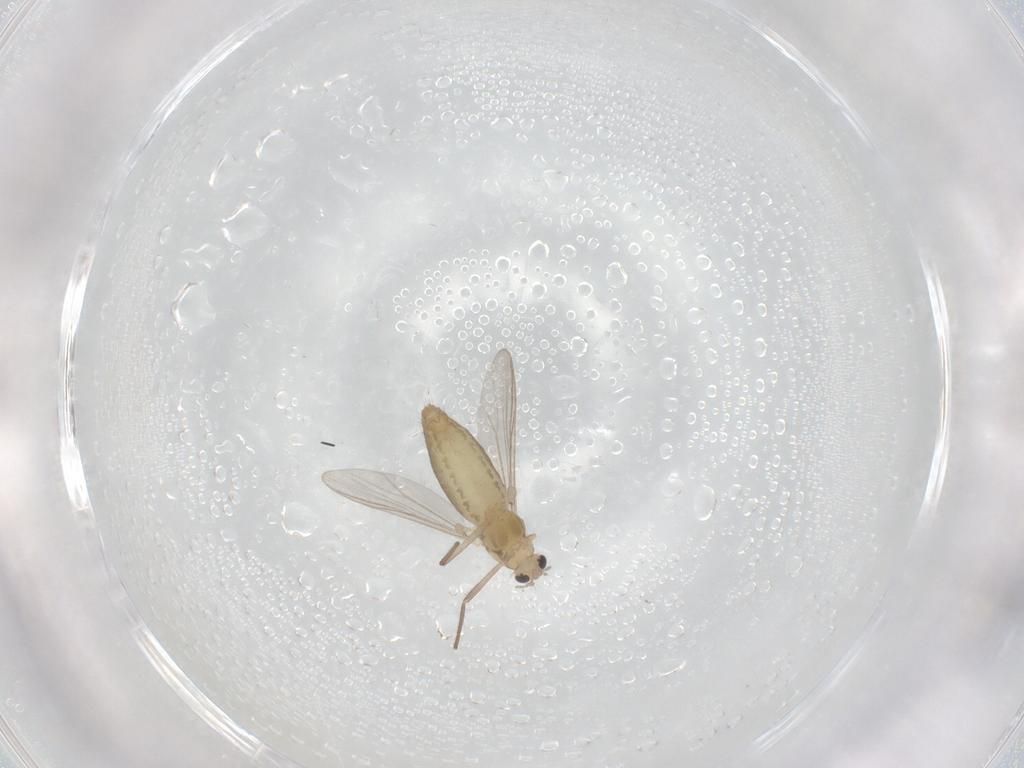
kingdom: Animalia
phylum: Arthropoda
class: Insecta
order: Diptera
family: Chironomidae
